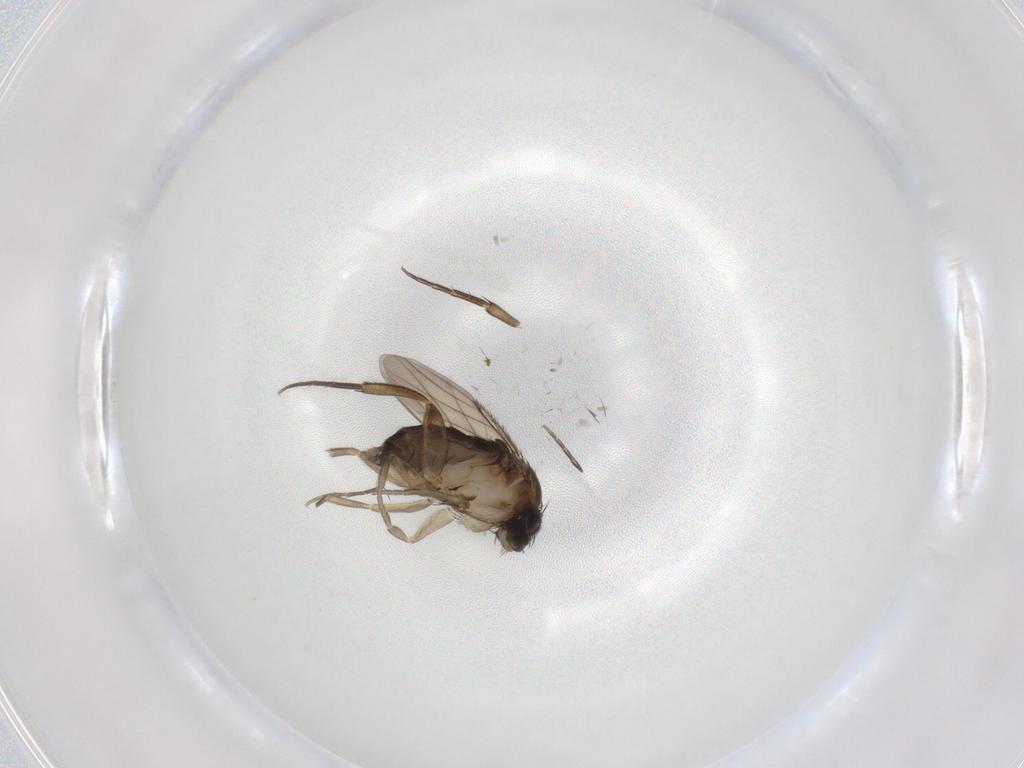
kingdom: Animalia
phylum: Arthropoda
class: Insecta
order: Diptera
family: Phoridae
